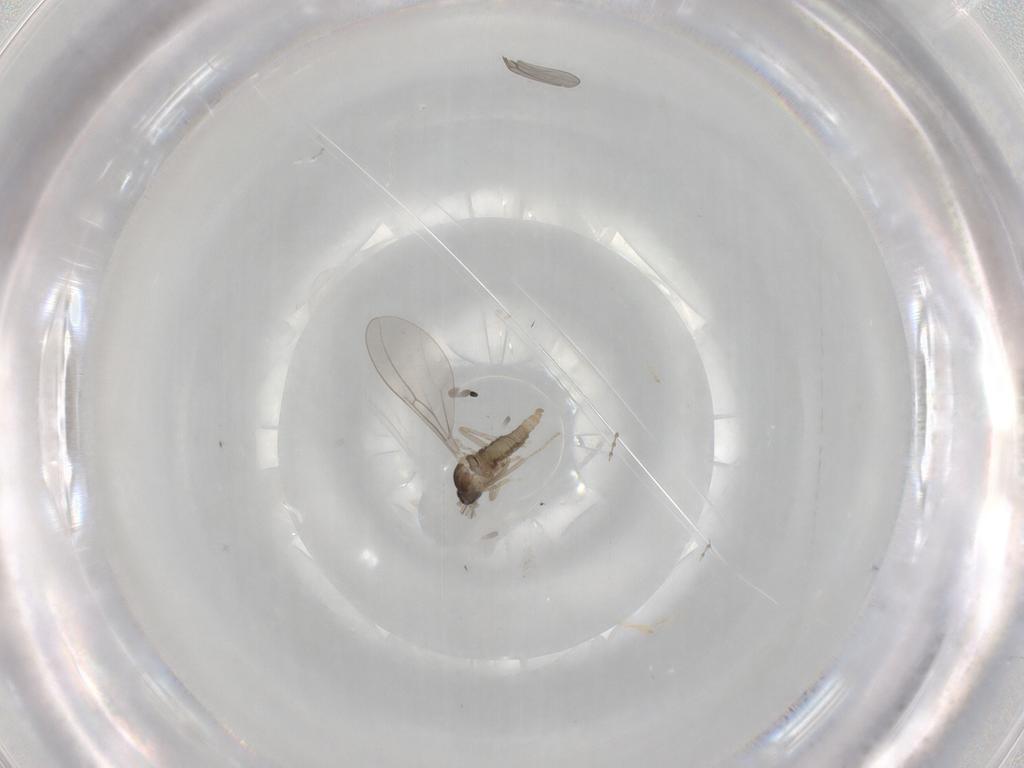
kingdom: Animalia
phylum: Arthropoda
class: Insecta
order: Diptera
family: Cecidomyiidae
